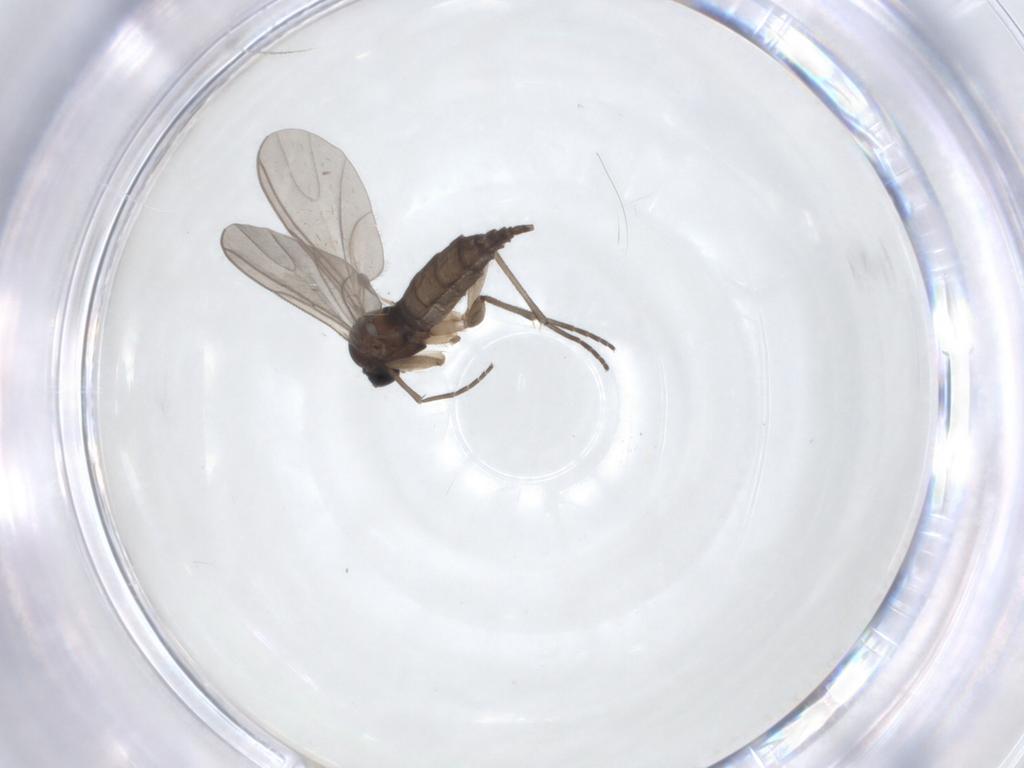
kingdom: Animalia
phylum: Arthropoda
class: Insecta
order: Diptera
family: Sciaridae
